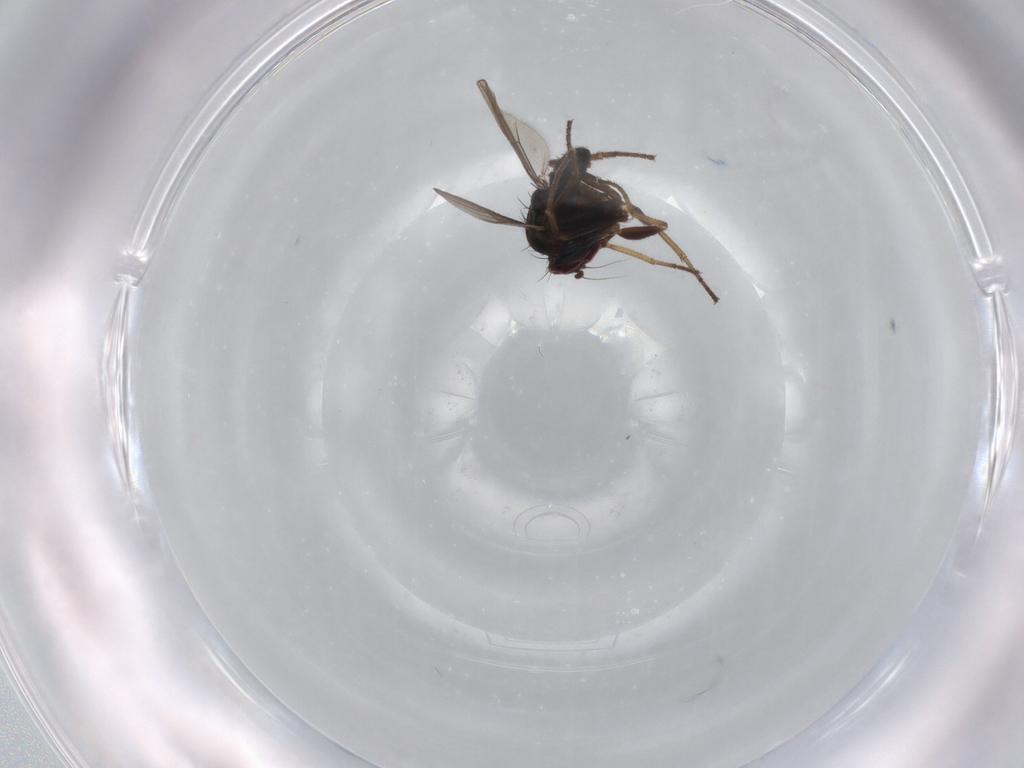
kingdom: Animalia
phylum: Arthropoda
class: Insecta
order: Diptera
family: Dolichopodidae
